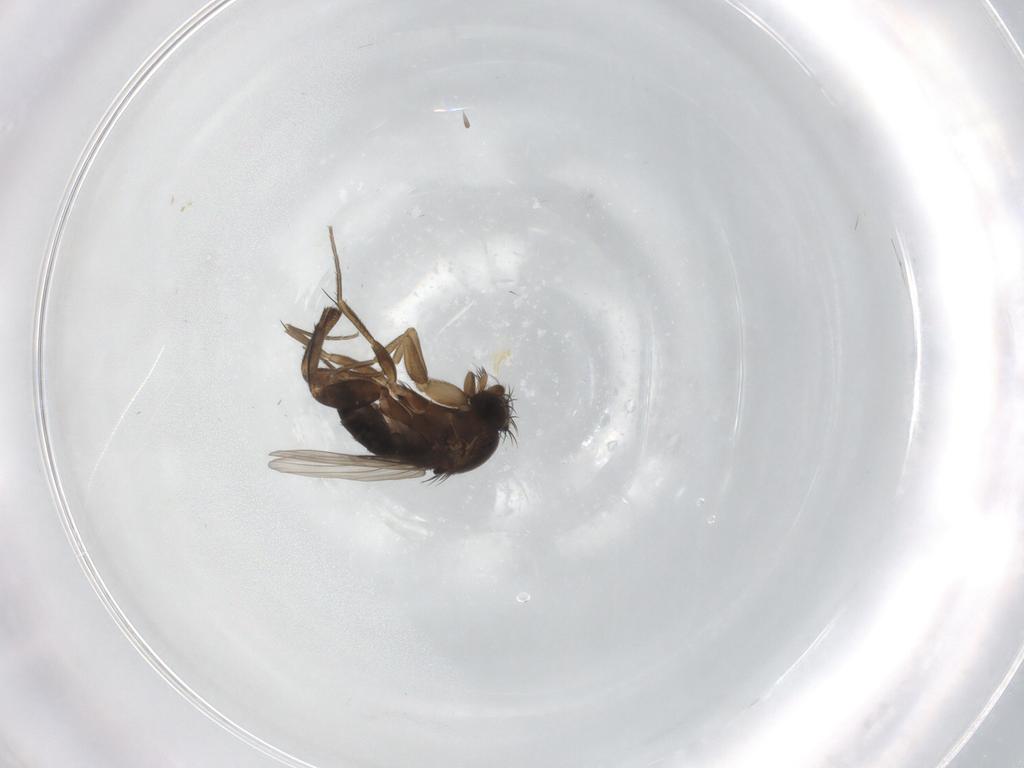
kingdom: Animalia
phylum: Arthropoda
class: Insecta
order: Diptera
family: Phoridae
